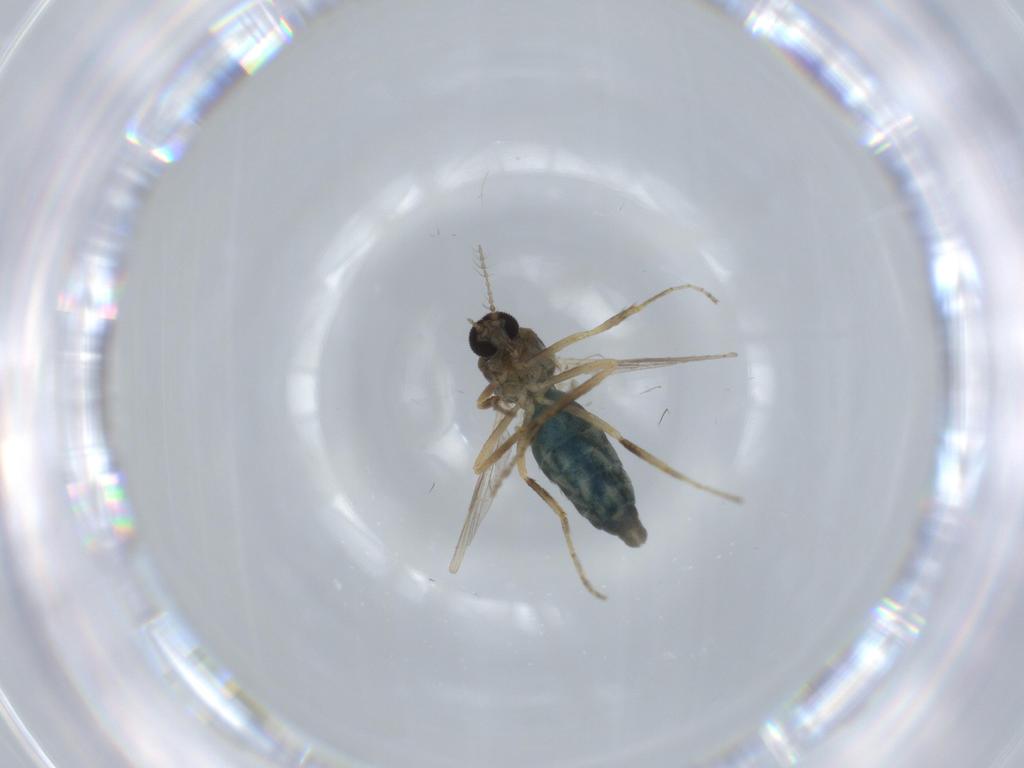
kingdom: Animalia
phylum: Arthropoda
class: Insecta
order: Diptera
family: Ceratopogonidae
